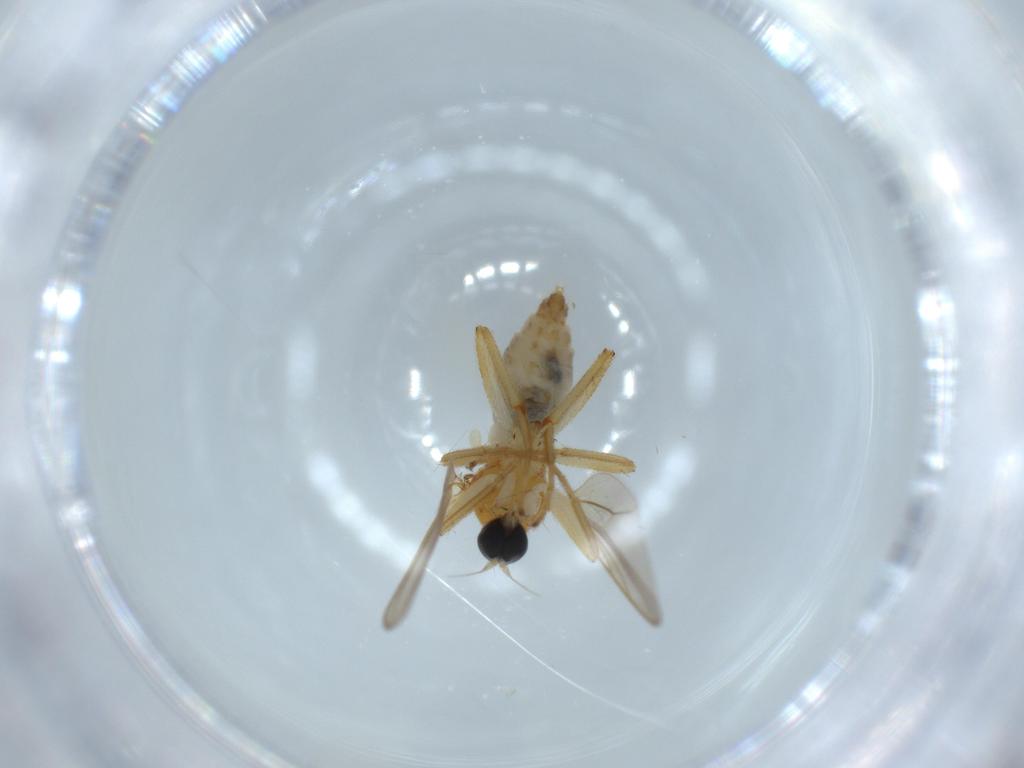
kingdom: Animalia
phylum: Arthropoda
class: Insecta
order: Diptera
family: Hybotidae
